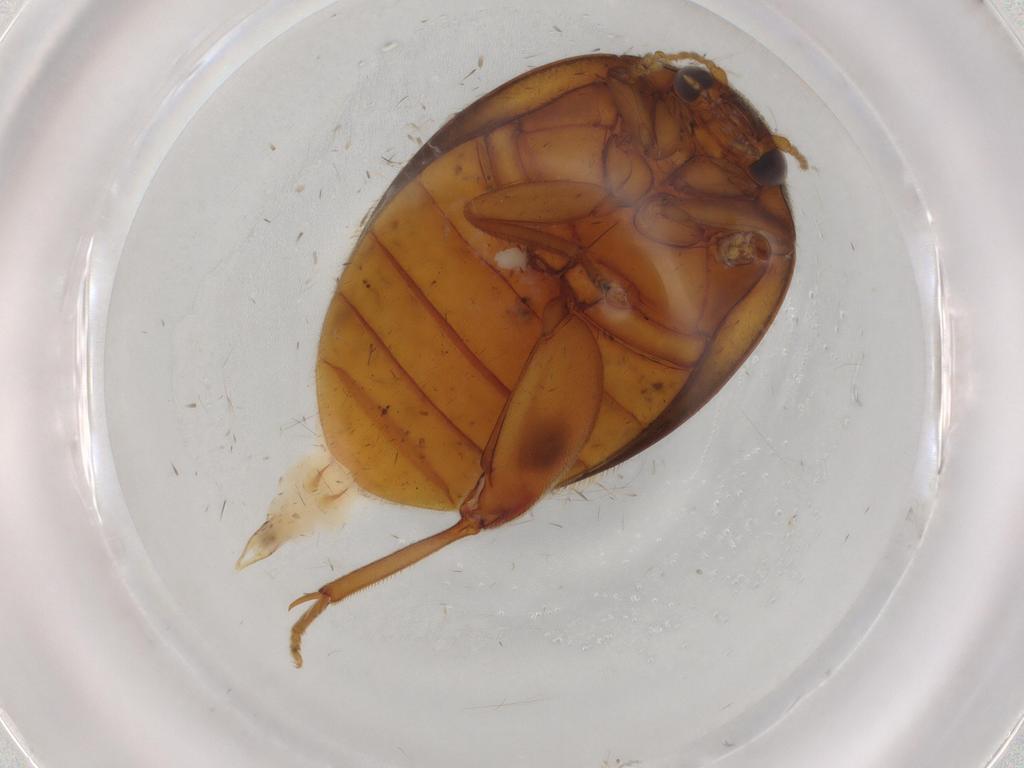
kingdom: Animalia
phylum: Arthropoda
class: Insecta
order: Coleoptera
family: Scirtidae
